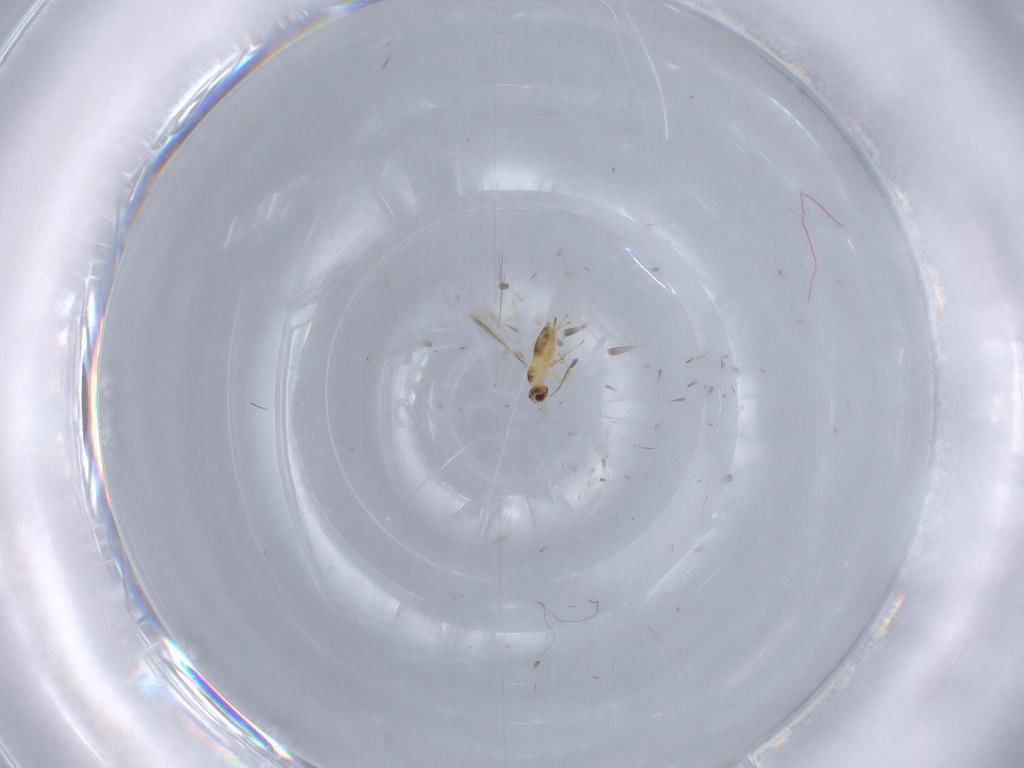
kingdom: Animalia
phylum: Arthropoda
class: Insecta
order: Hymenoptera
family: Mymaridae
